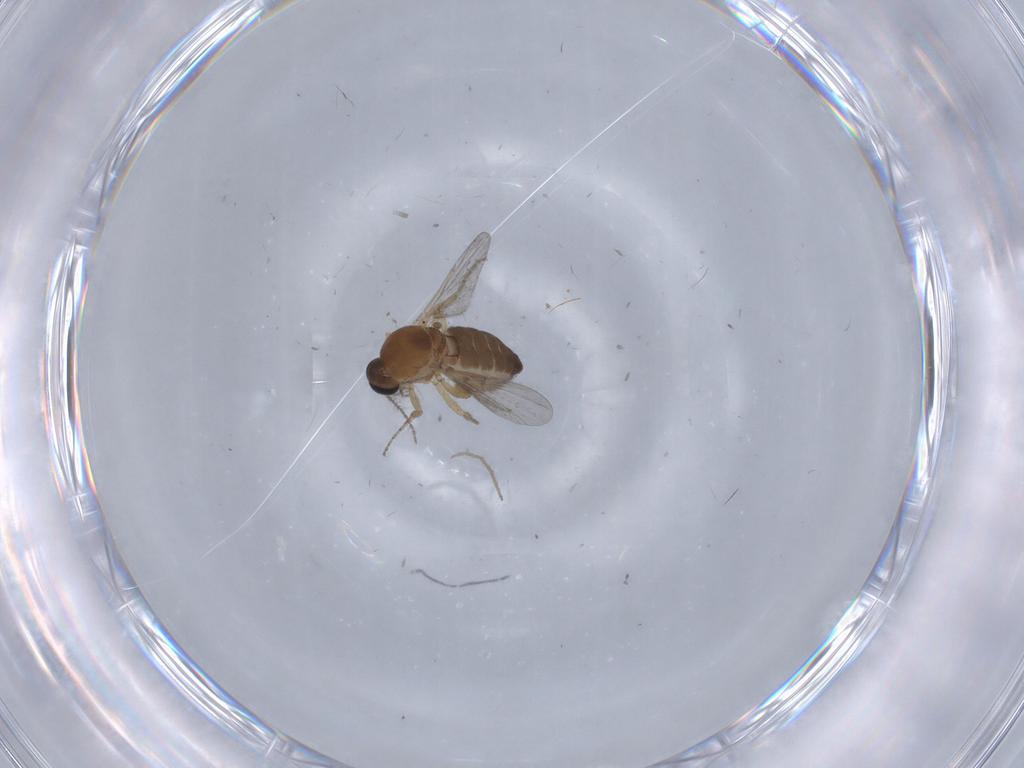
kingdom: Animalia
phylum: Arthropoda
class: Insecta
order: Diptera
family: Ceratopogonidae
